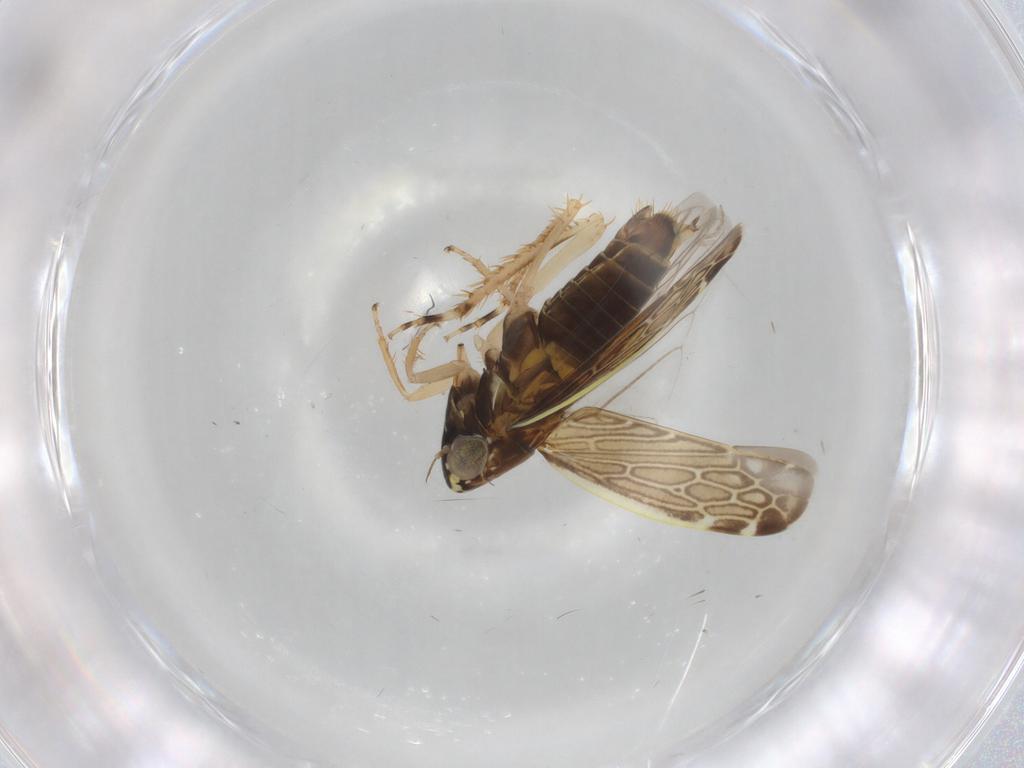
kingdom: Animalia
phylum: Arthropoda
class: Insecta
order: Hemiptera
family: Cicadellidae
